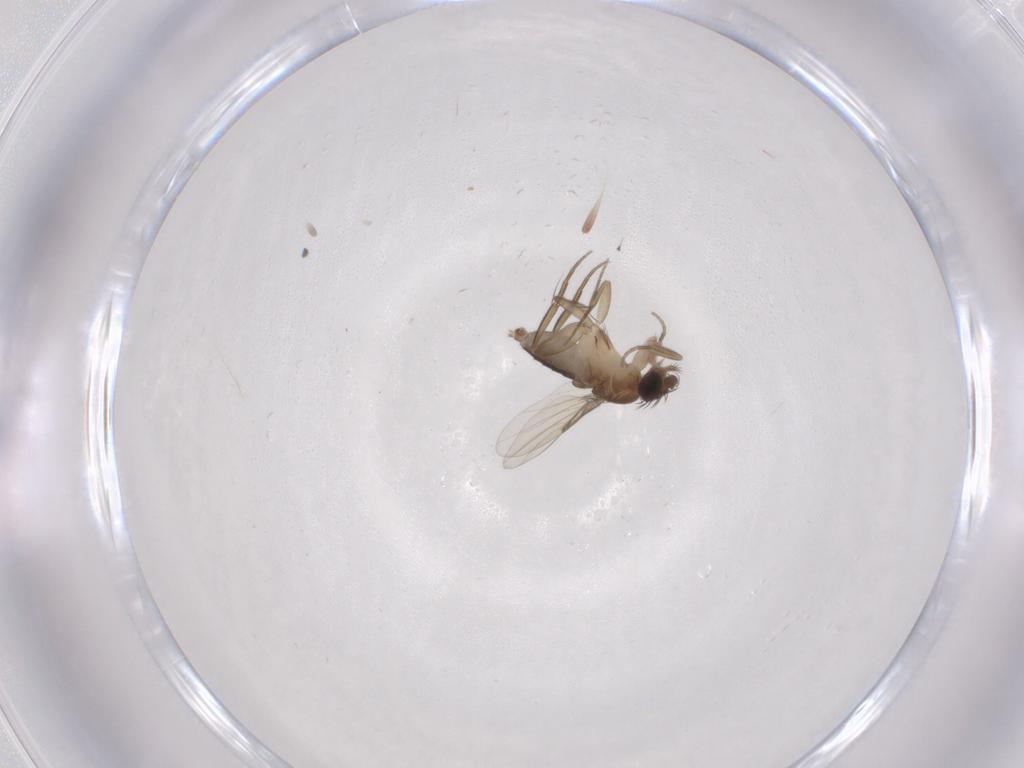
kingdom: Animalia
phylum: Arthropoda
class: Insecta
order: Diptera
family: Phoridae
